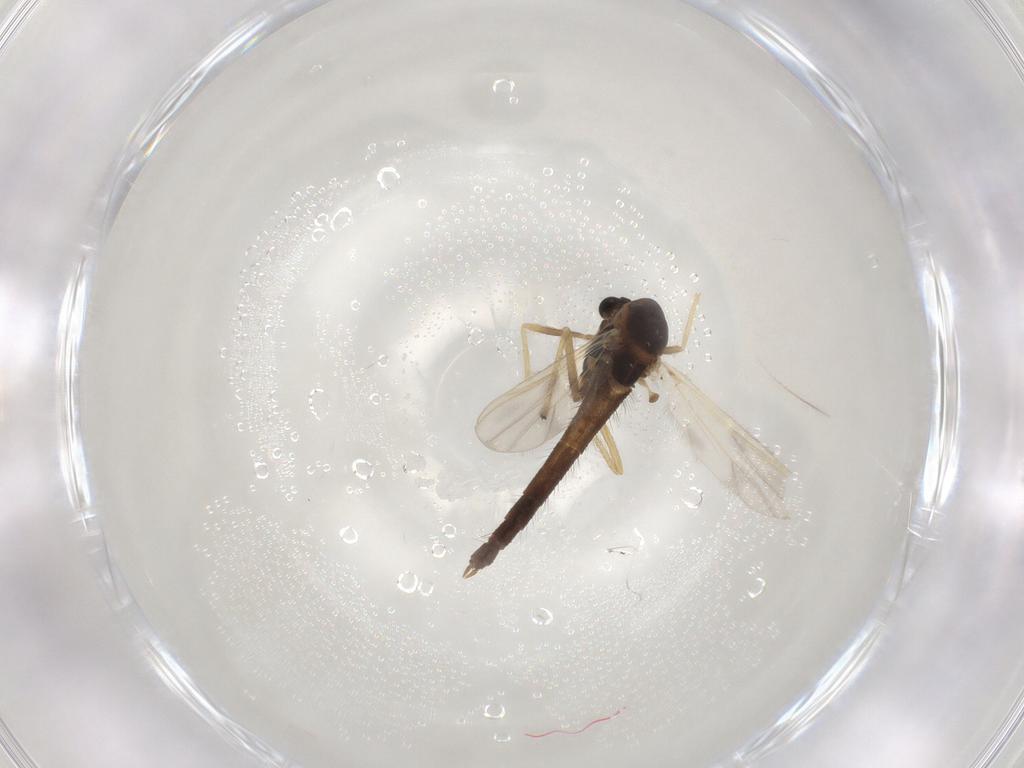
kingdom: Animalia
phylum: Arthropoda
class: Insecta
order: Diptera
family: Chironomidae
